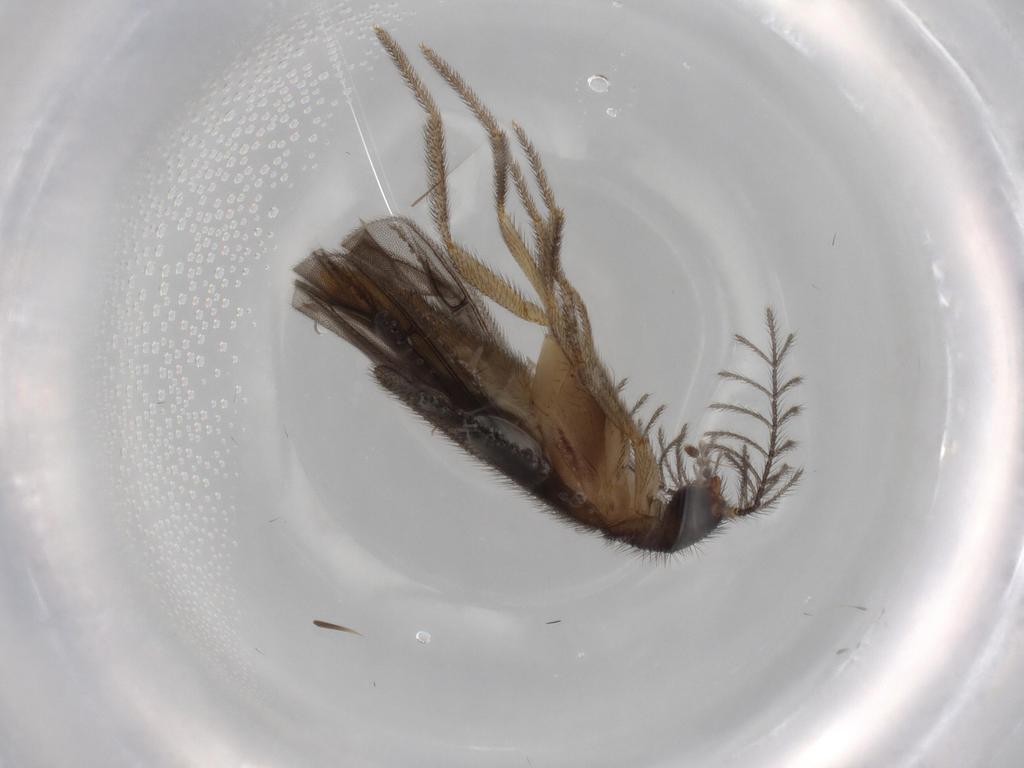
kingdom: Animalia
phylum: Arthropoda
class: Insecta
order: Coleoptera
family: Phengodidae
